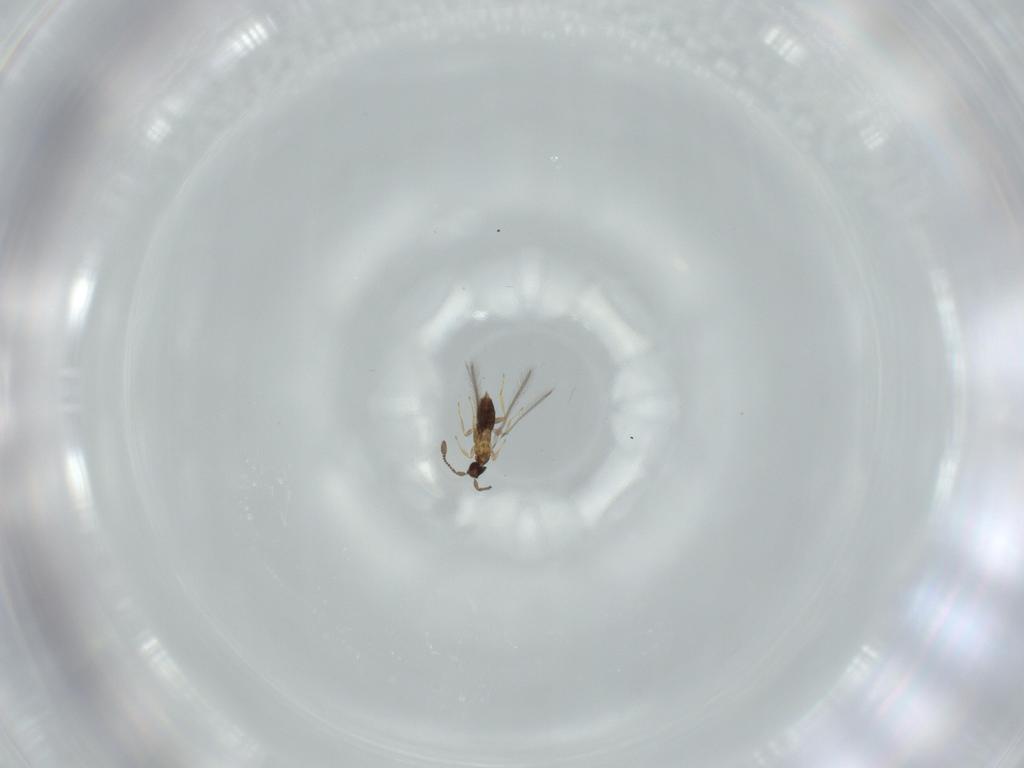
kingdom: Animalia
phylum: Arthropoda
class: Insecta
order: Hymenoptera
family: Mymaridae
